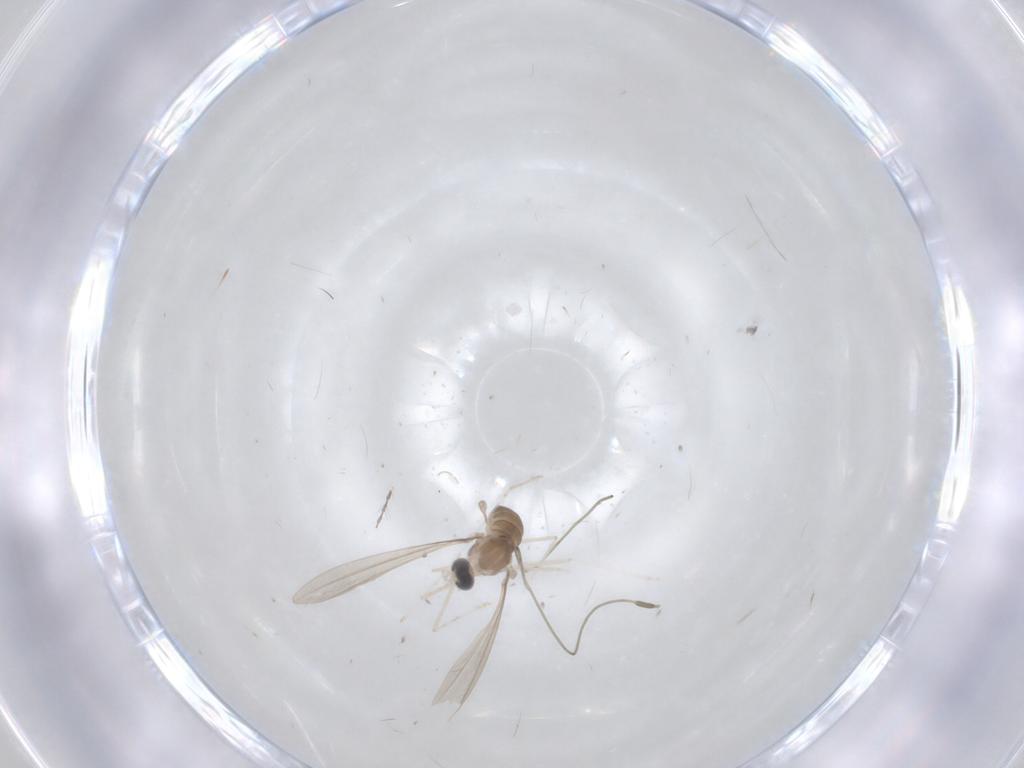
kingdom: Animalia
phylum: Arthropoda
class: Insecta
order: Diptera
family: Cecidomyiidae
